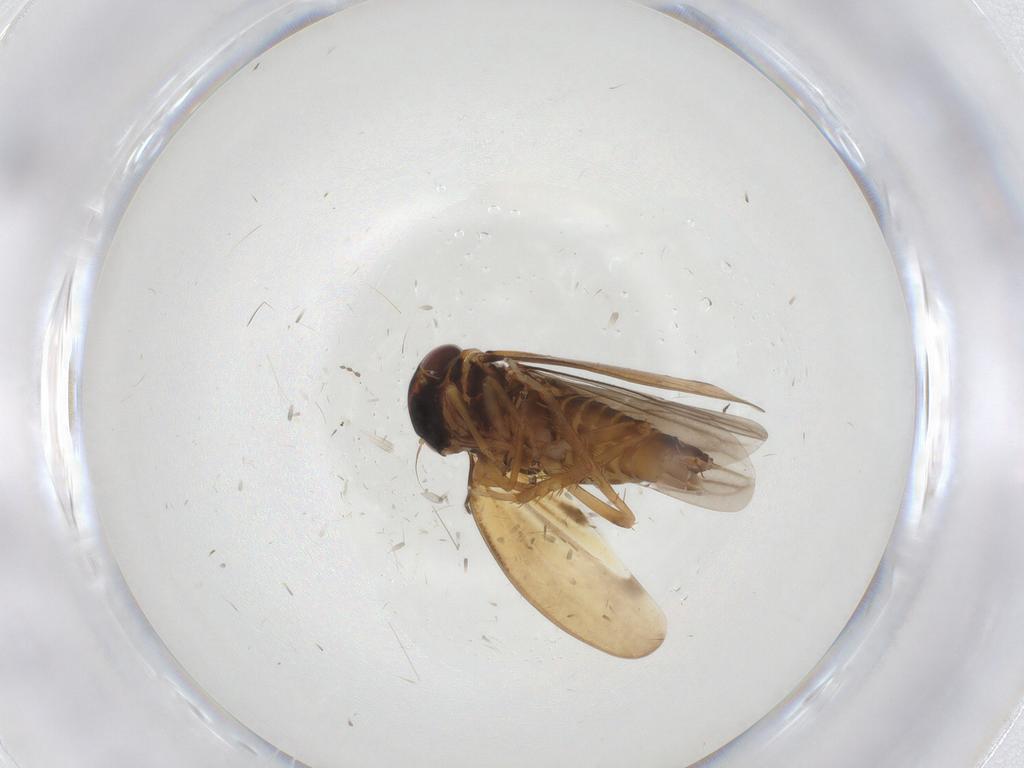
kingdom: Animalia
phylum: Arthropoda
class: Insecta
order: Hemiptera
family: Cicadellidae
